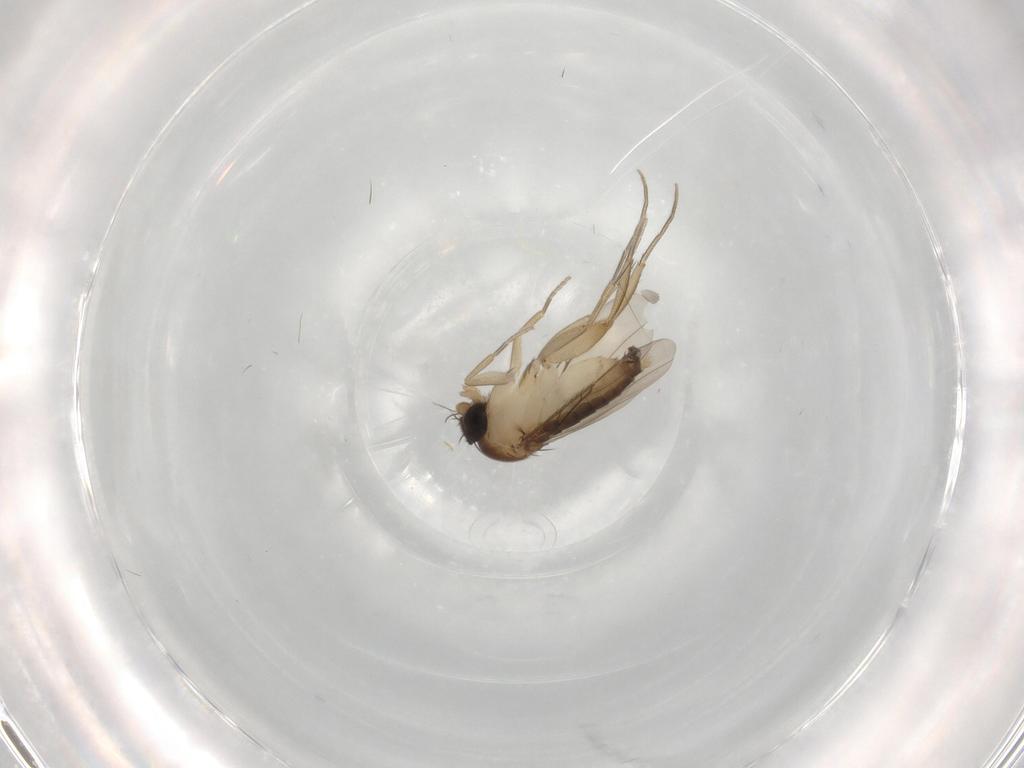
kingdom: Animalia
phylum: Arthropoda
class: Insecta
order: Diptera
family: Phoridae
